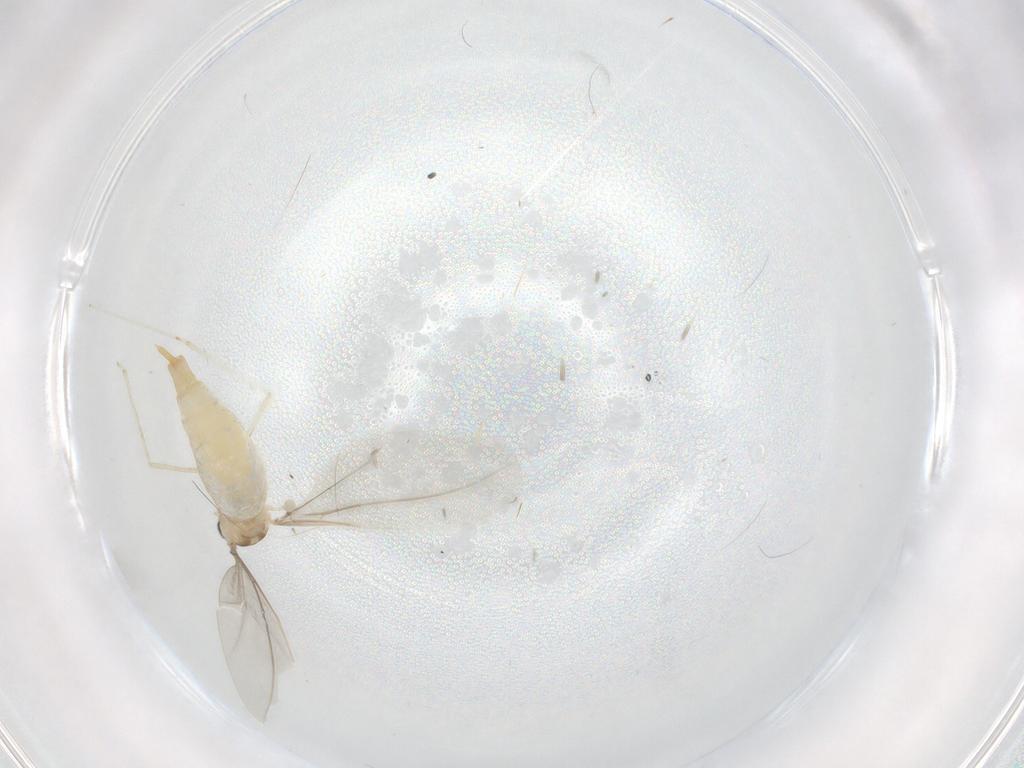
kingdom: Animalia
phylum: Arthropoda
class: Insecta
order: Diptera
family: Cecidomyiidae
